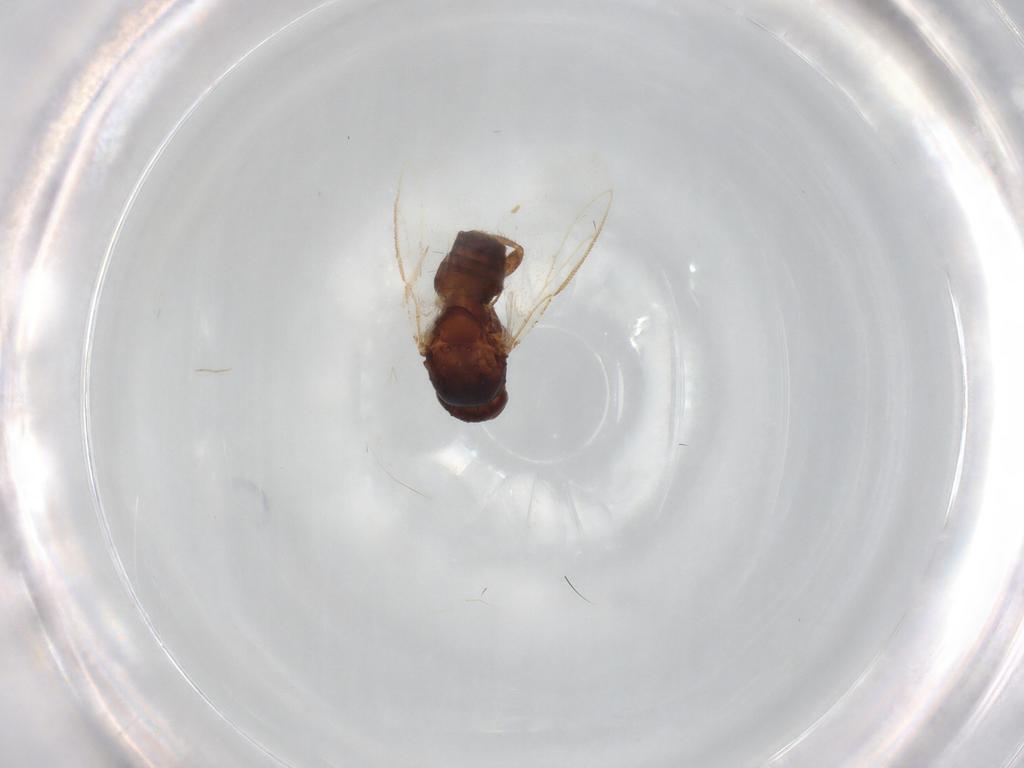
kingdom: Animalia
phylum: Arthropoda
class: Insecta
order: Diptera
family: Sphaeroceridae
